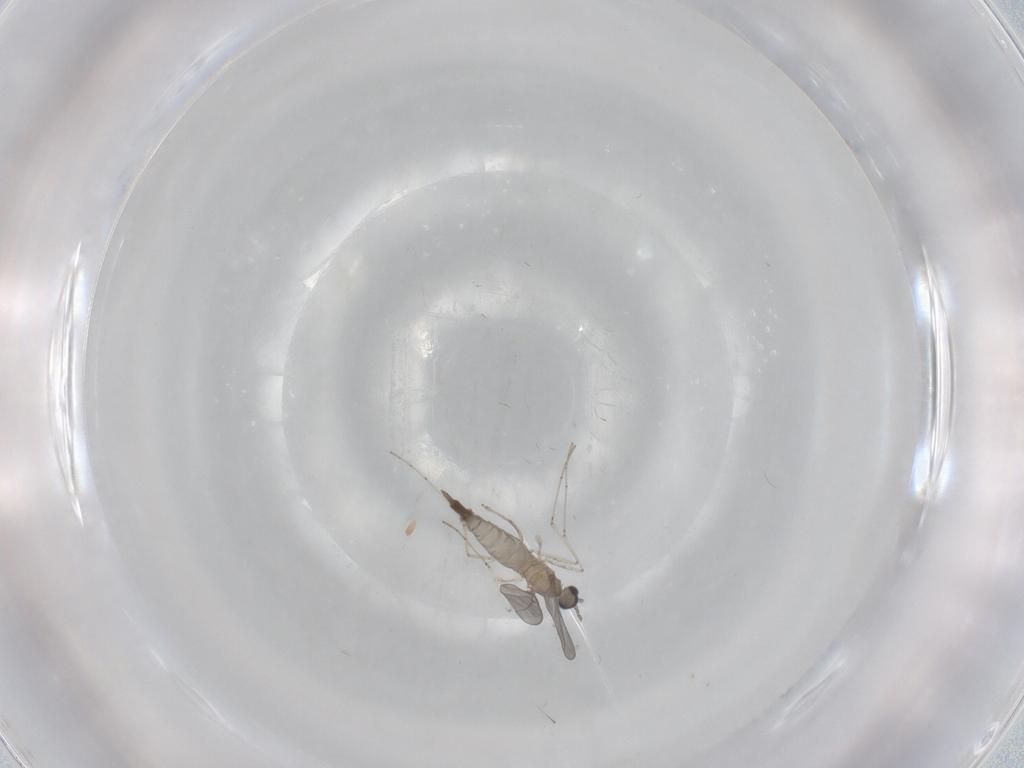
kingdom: Animalia
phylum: Arthropoda
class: Insecta
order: Diptera
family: Cecidomyiidae
